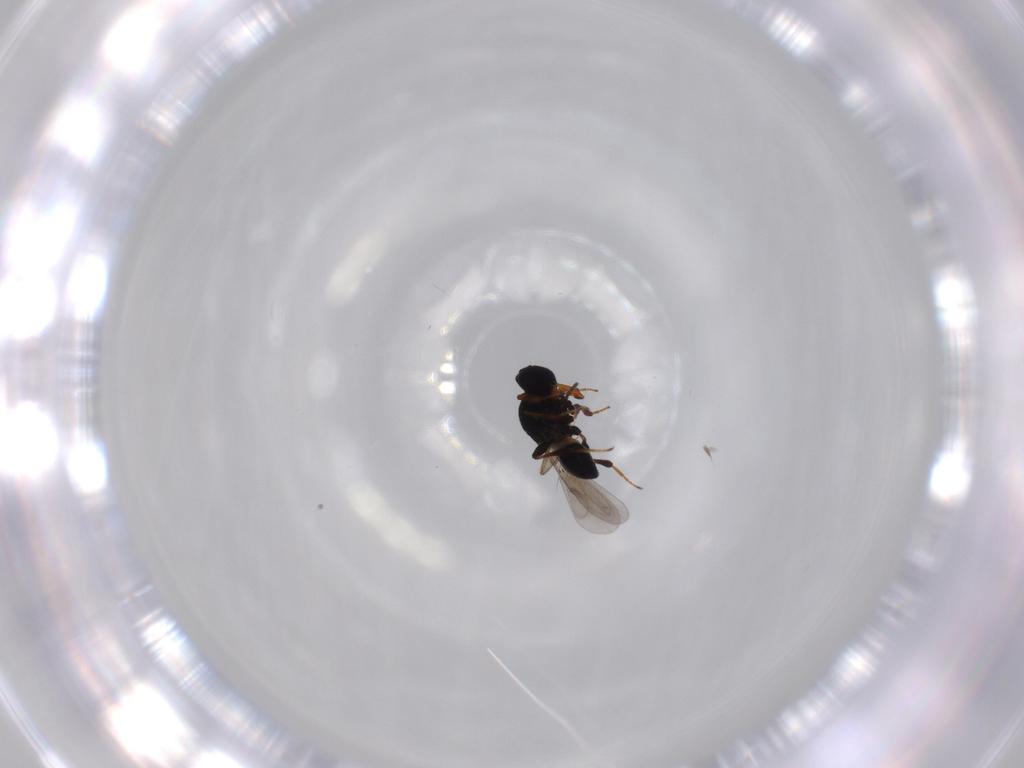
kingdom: Animalia
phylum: Arthropoda
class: Insecta
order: Hymenoptera
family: Platygastridae
